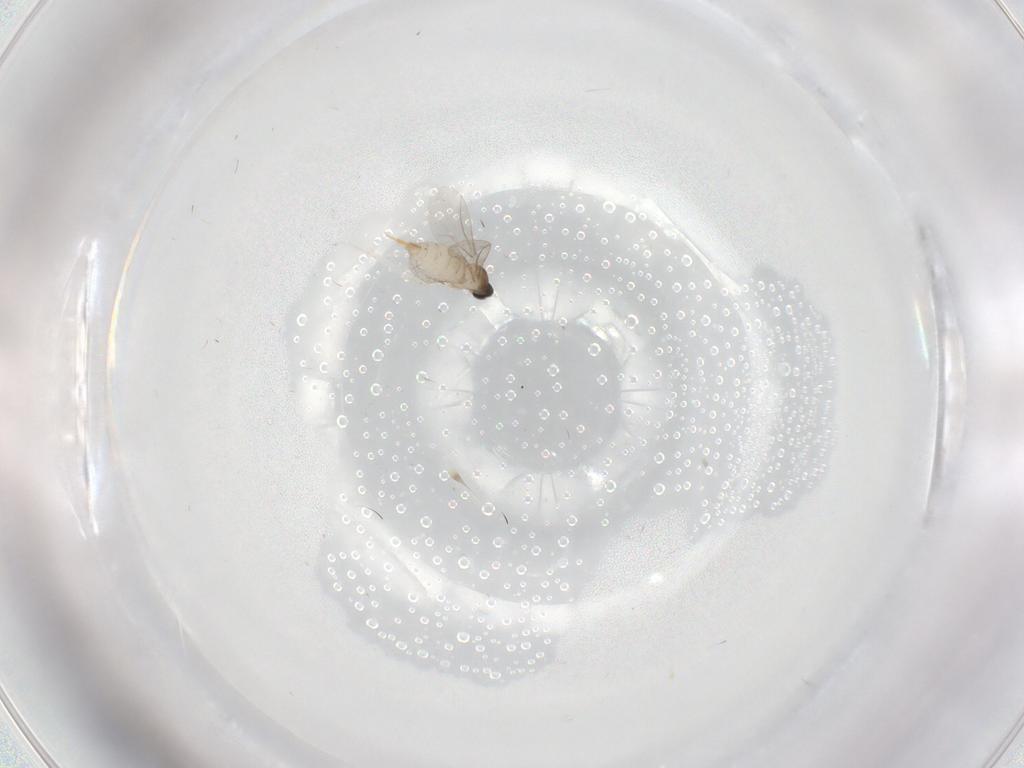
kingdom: Animalia
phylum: Arthropoda
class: Insecta
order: Diptera
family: Cecidomyiidae
